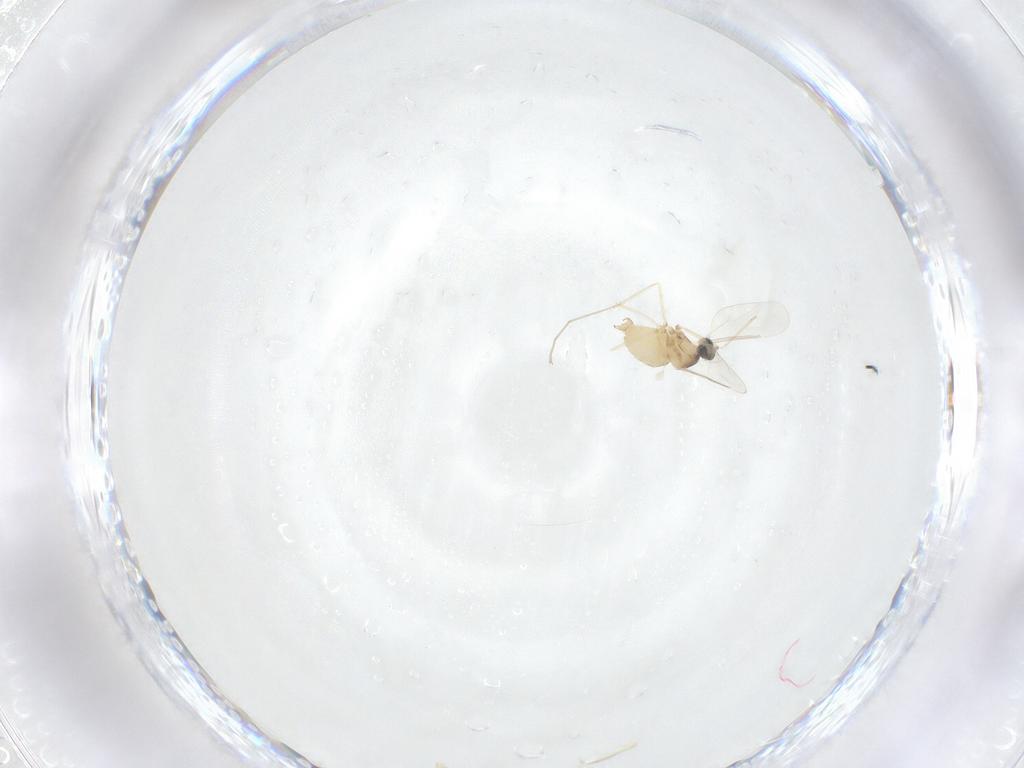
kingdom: Animalia
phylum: Arthropoda
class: Insecta
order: Diptera
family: Cecidomyiidae
